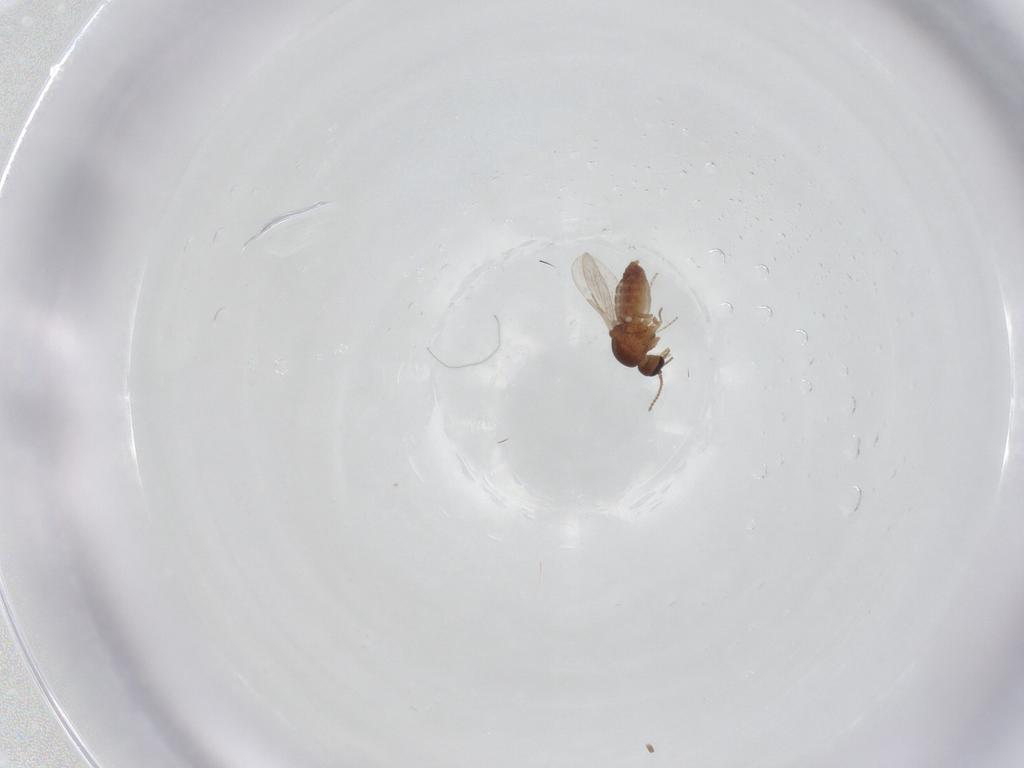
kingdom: Animalia
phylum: Arthropoda
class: Insecta
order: Diptera
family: Ceratopogonidae
